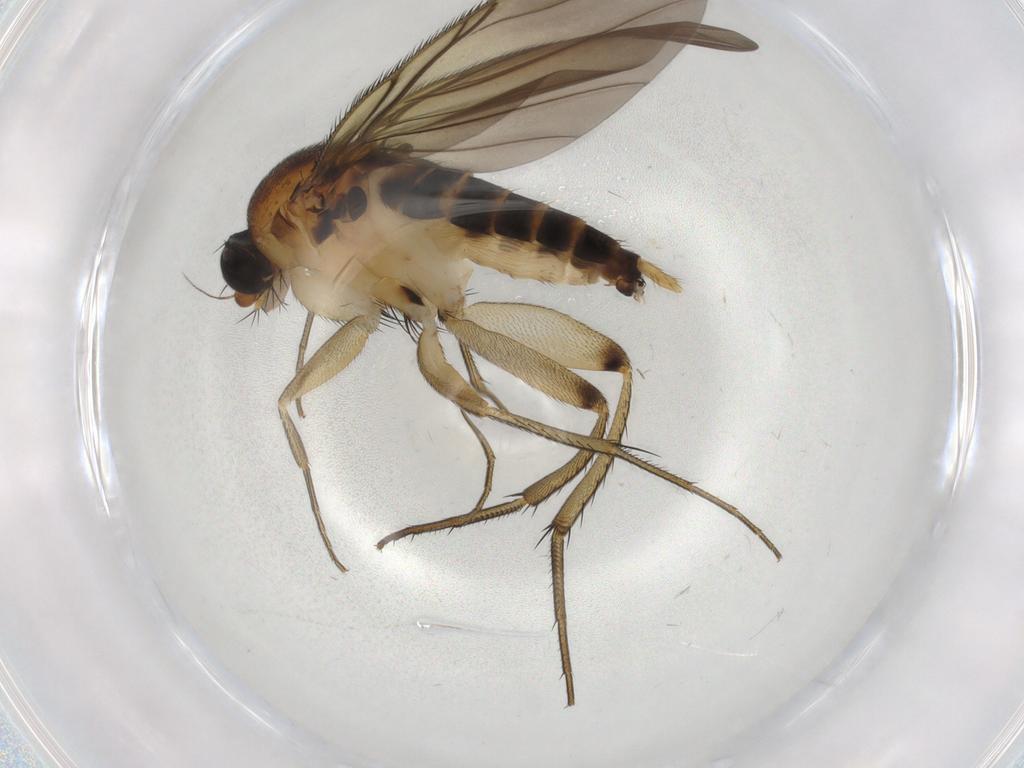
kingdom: Animalia
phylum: Arthropoda
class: Insecta
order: Diptera
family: Phoridae
